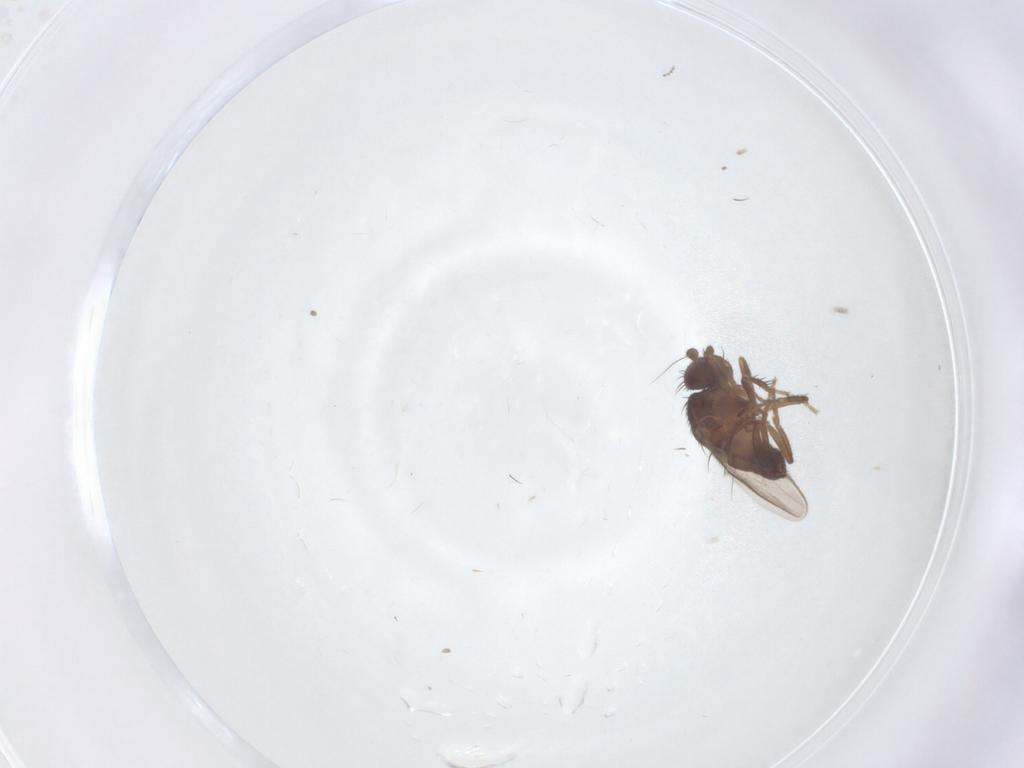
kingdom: Animalia
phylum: Arthropoda
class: Insecta
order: Diptera
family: Sphaeroceridae
